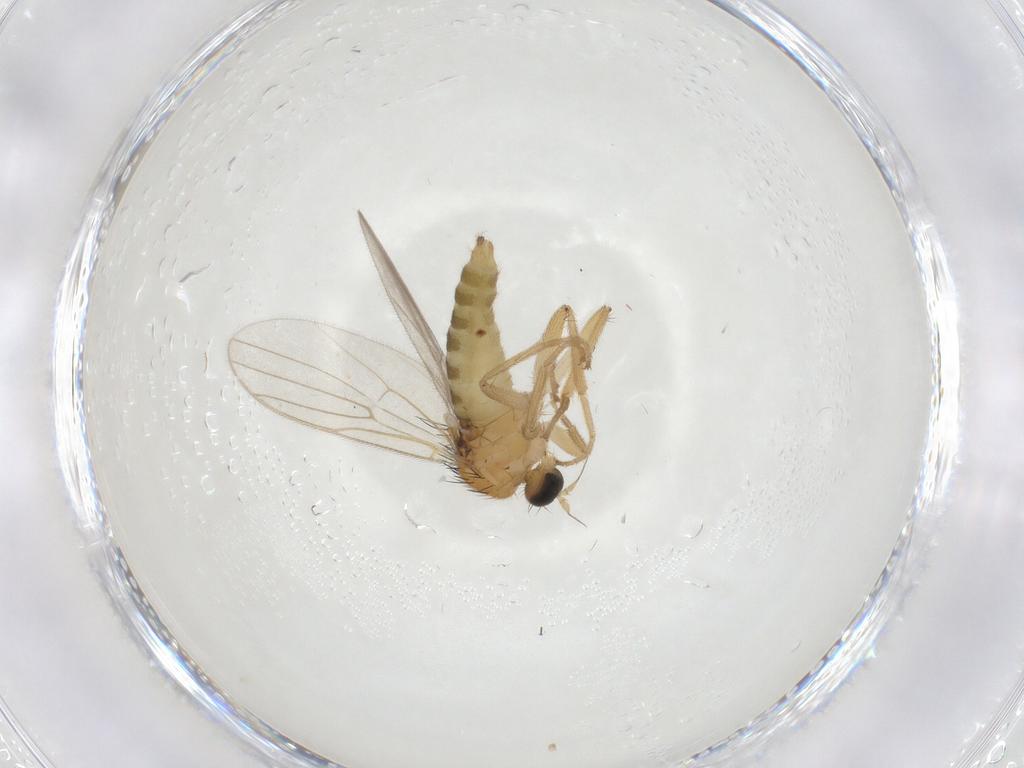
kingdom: Animalia
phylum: Arthropoda
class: Insecta
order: Diptera
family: Hybotidae
